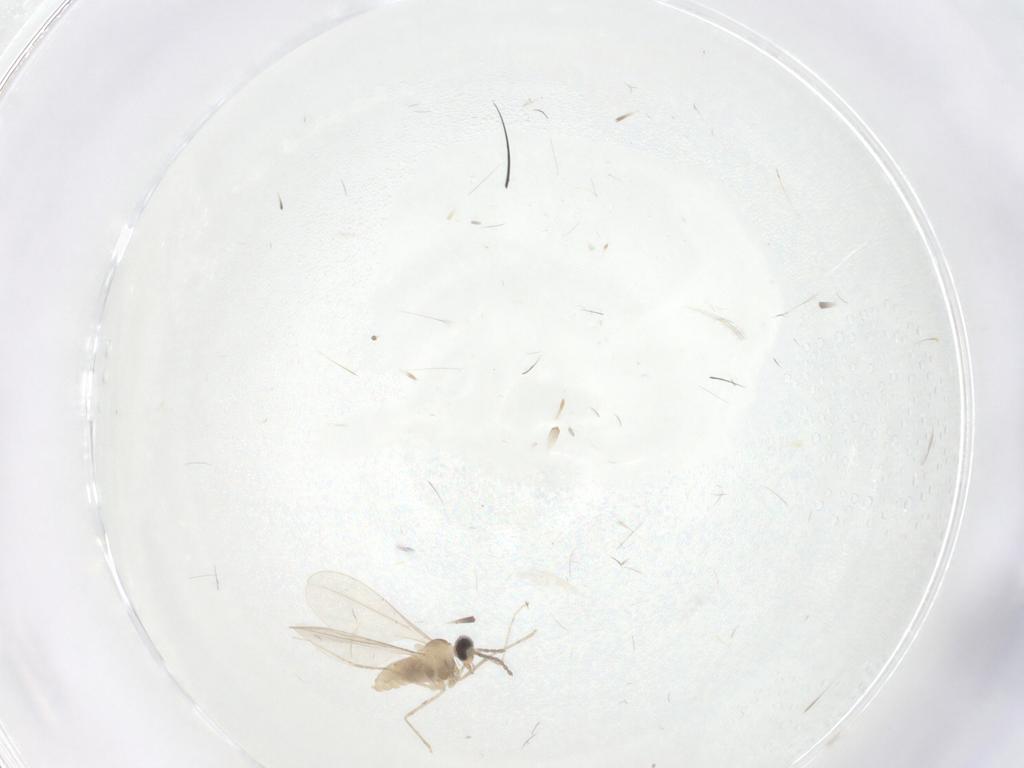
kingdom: Animalia
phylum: Arthropoda
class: Insecta
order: Diptera
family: Cecidomyiidae
